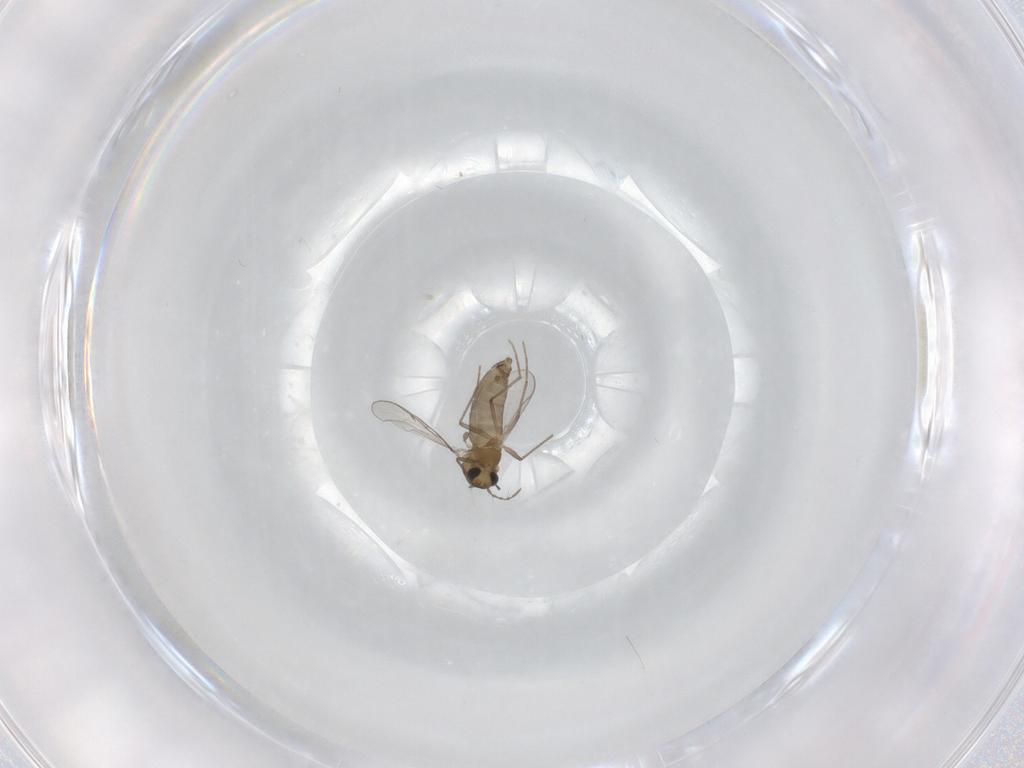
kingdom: Animalia
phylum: Arthropoda
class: Insecta
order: Diptera
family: Chironomidae
